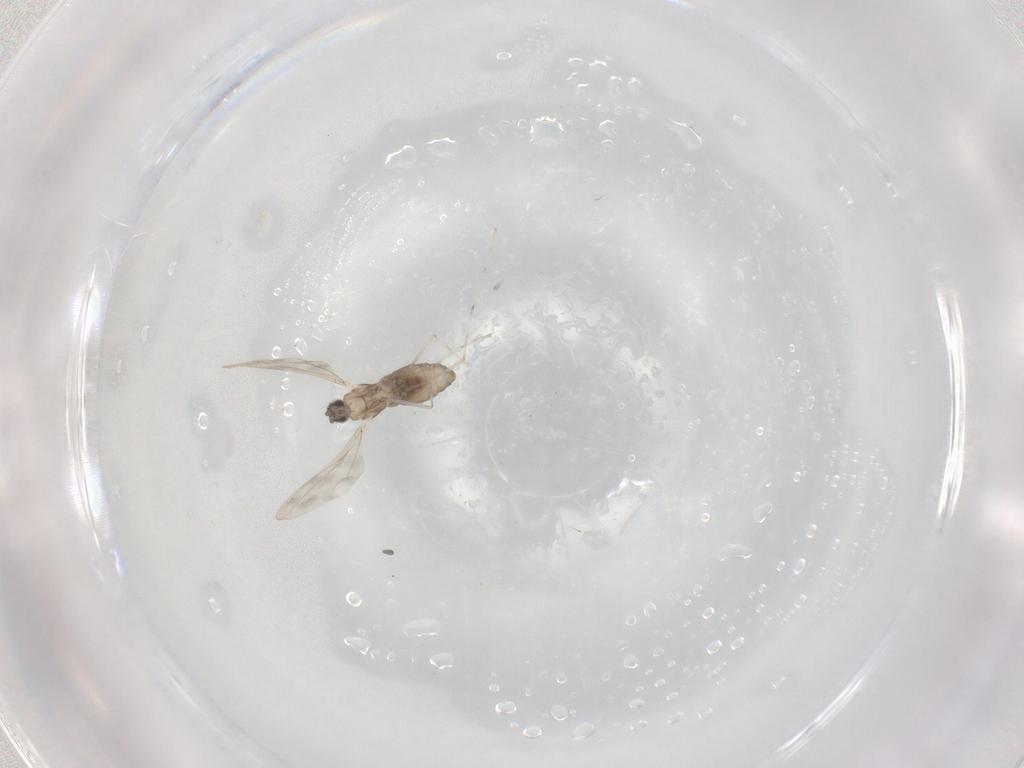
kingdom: Animalia
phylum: Arthropoda
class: Insecta
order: Diptera
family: Cecidomyiidae
